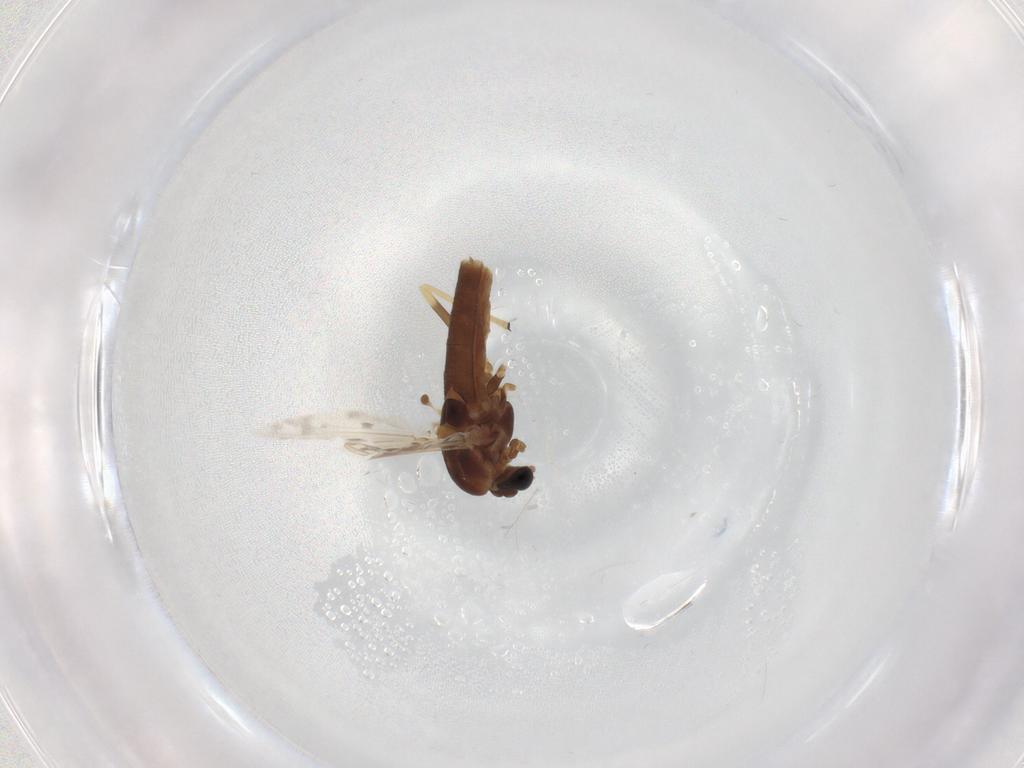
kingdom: Animalia
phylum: Arthropoda
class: Insecta
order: Diptera
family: Chironomidae
